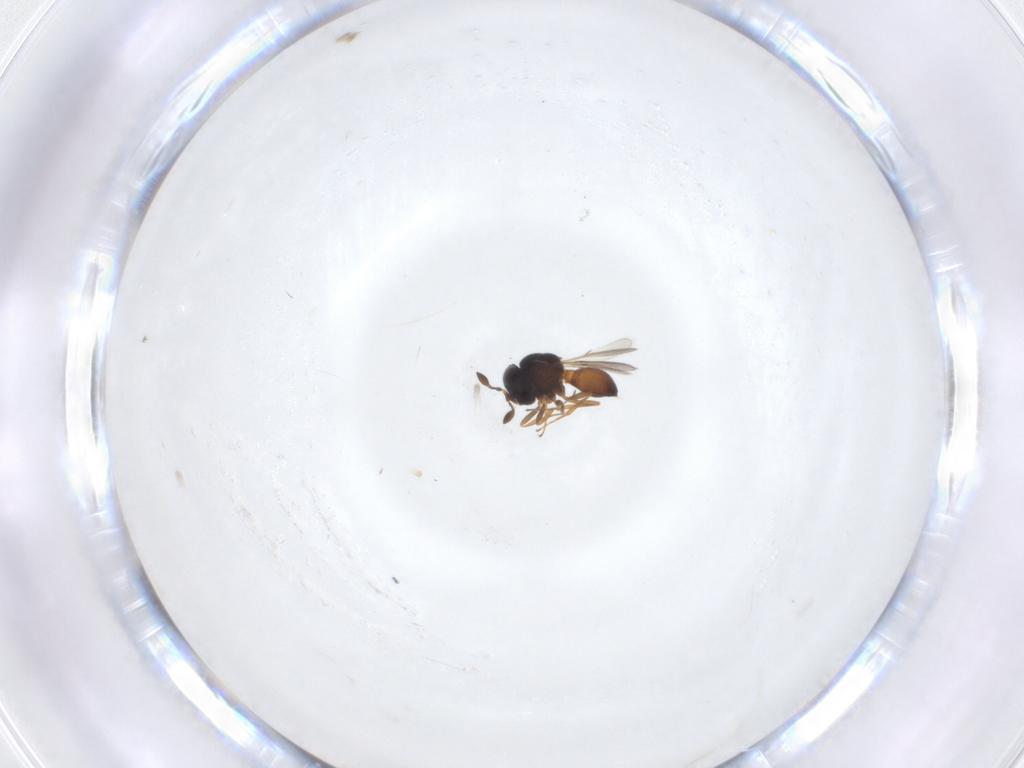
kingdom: Animalia
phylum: Arthropoda
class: Insecta
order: Hymenoptera
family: Scelionidae
